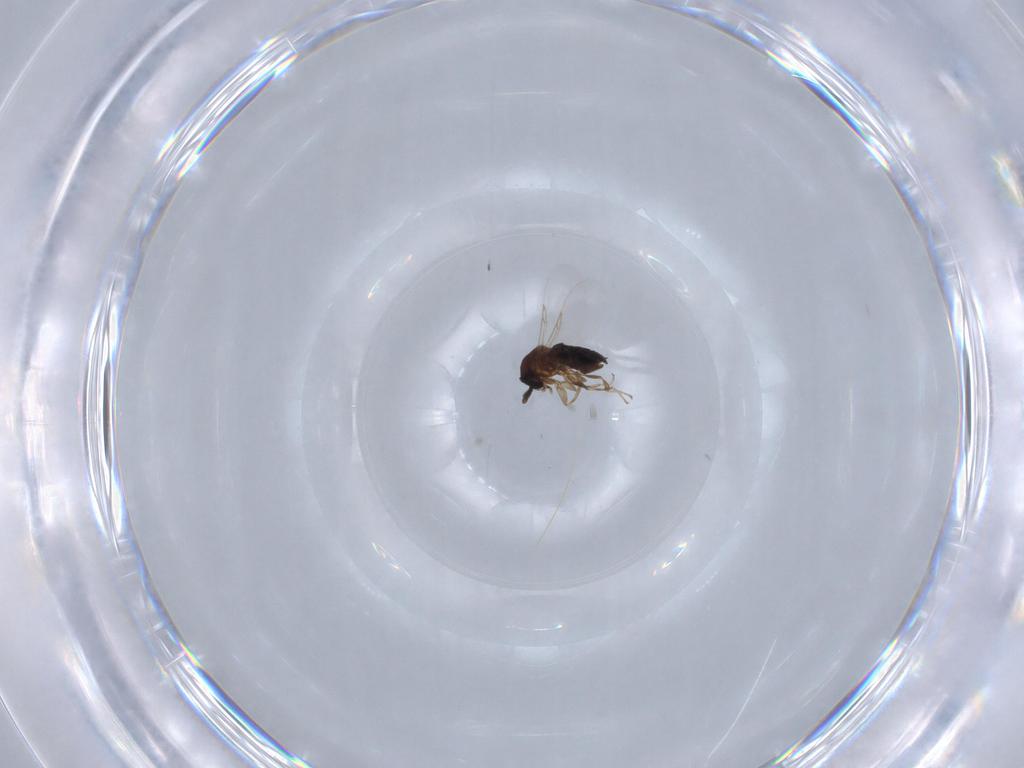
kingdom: Animalia
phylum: Arthropoda
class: Insecta
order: Diptera
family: Scatopsidae
